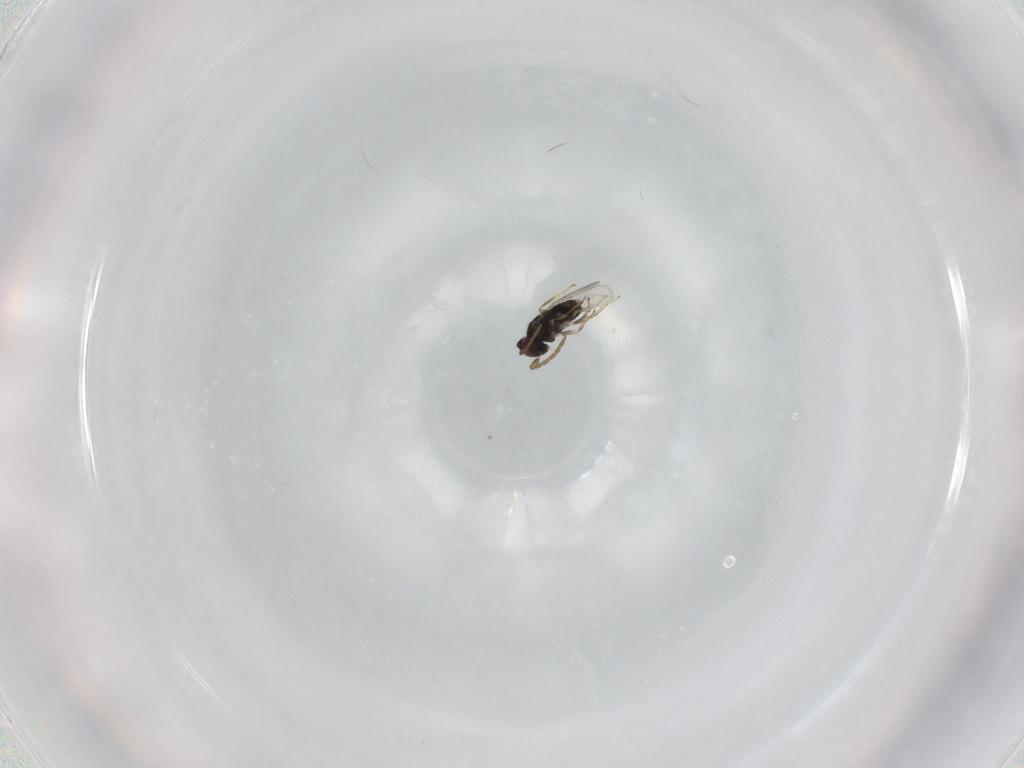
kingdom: Animalia
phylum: Arthropoda
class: Insecta
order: Hymenoptera
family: Aphelinidae
